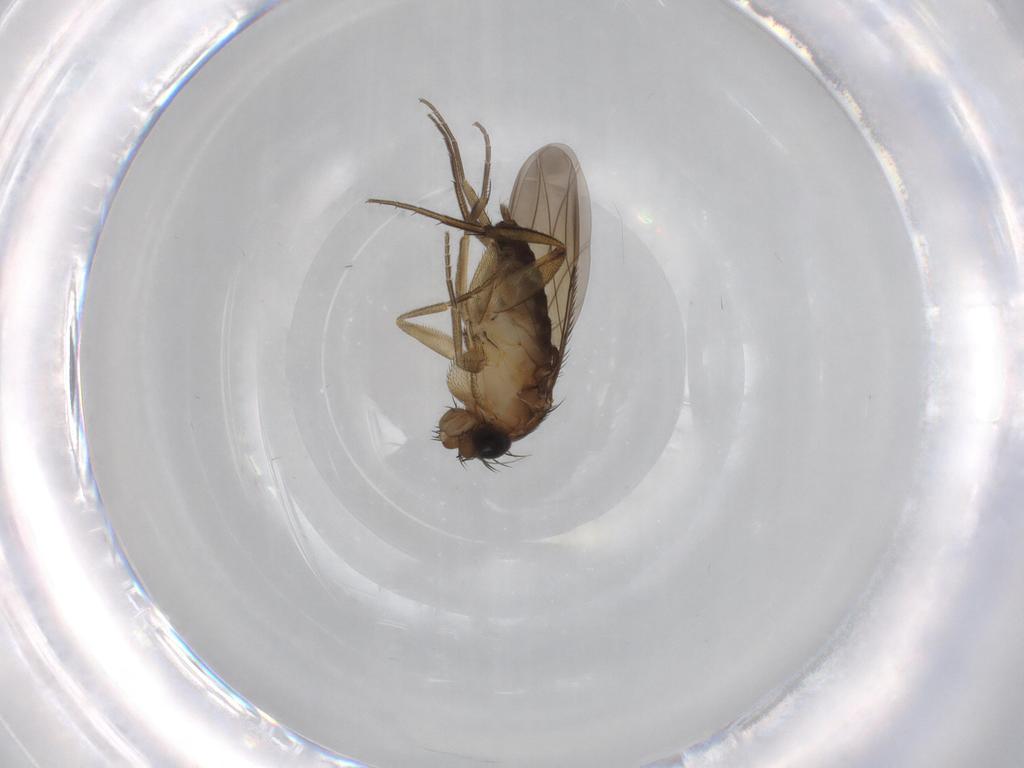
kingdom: Animalia
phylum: Arthropoda
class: Insecta
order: Diptera
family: Phoridae
